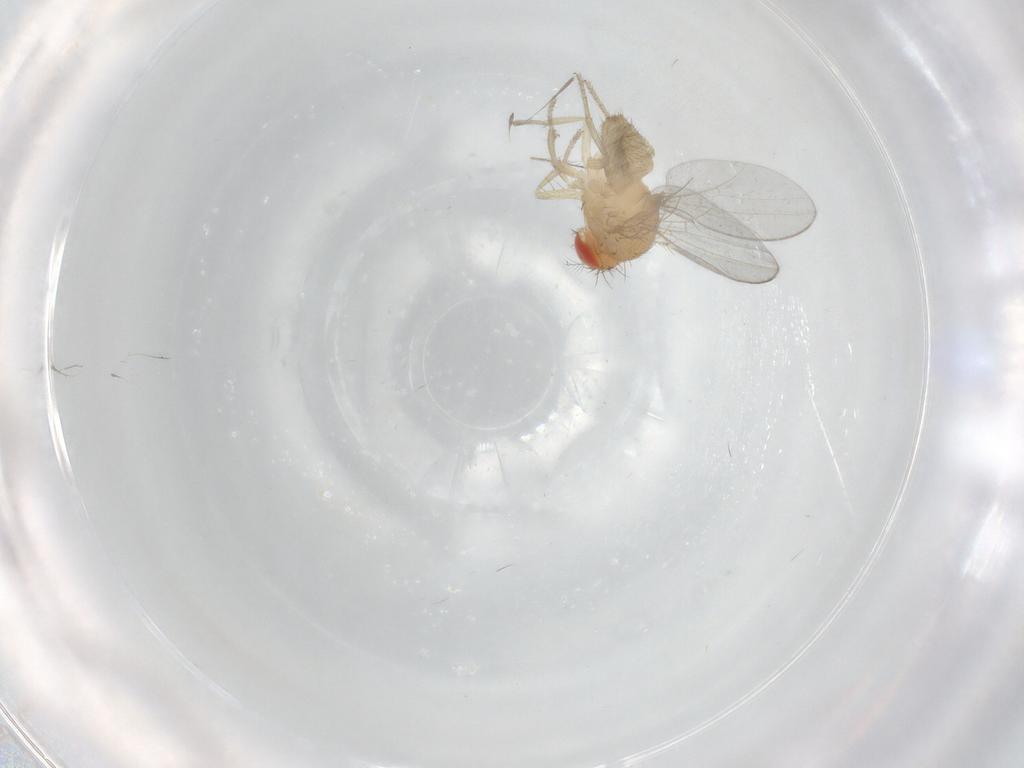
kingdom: Animalia
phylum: Arthropoda
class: Insecta
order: Diptera
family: Drosophilidae
